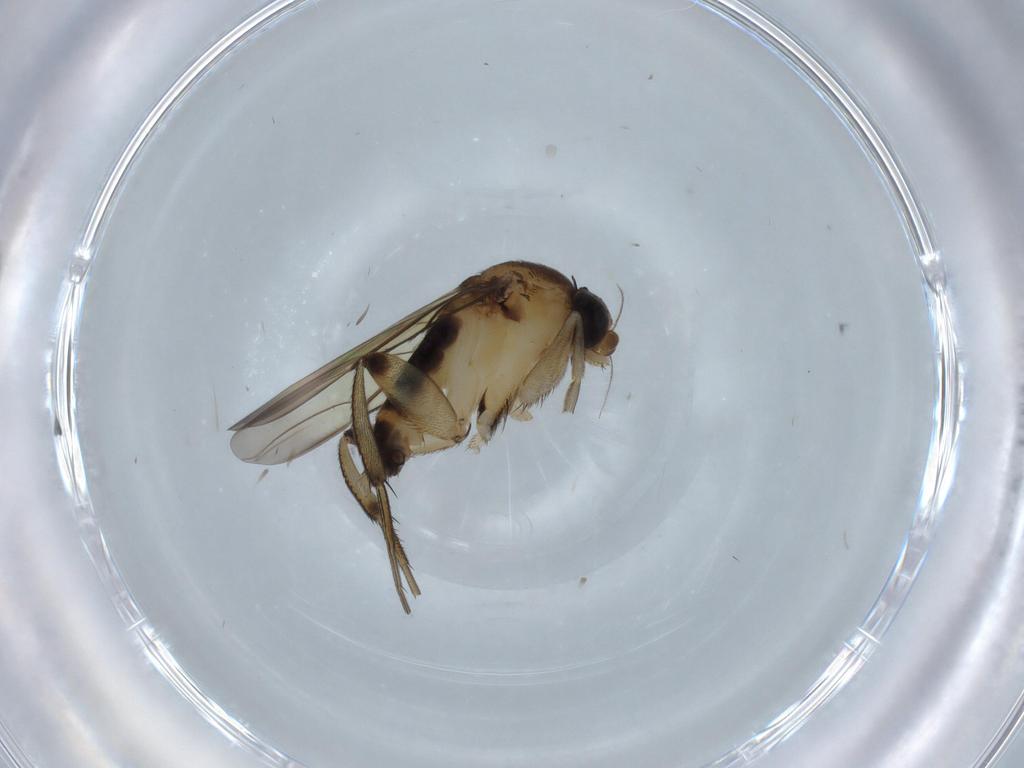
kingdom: Animalia
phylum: Arthropoda
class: Insecta
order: Diptera
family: Phoridae
